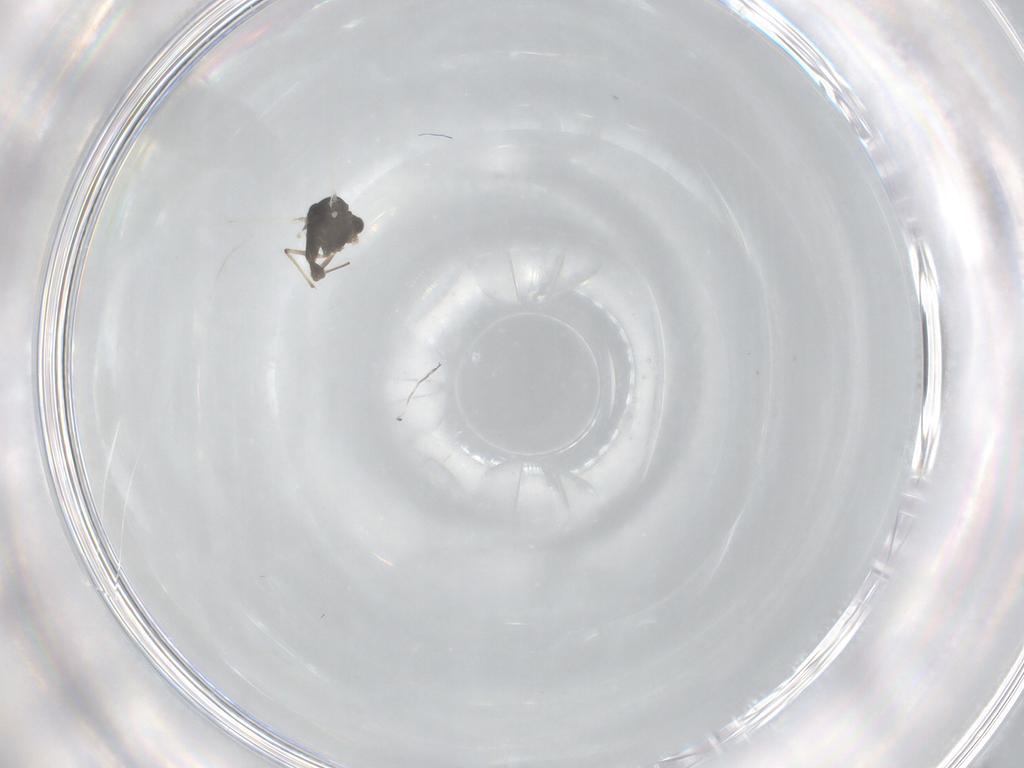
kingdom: Animalia
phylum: Arthropoda
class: Insecta
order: Diptera
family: Chironomidae
